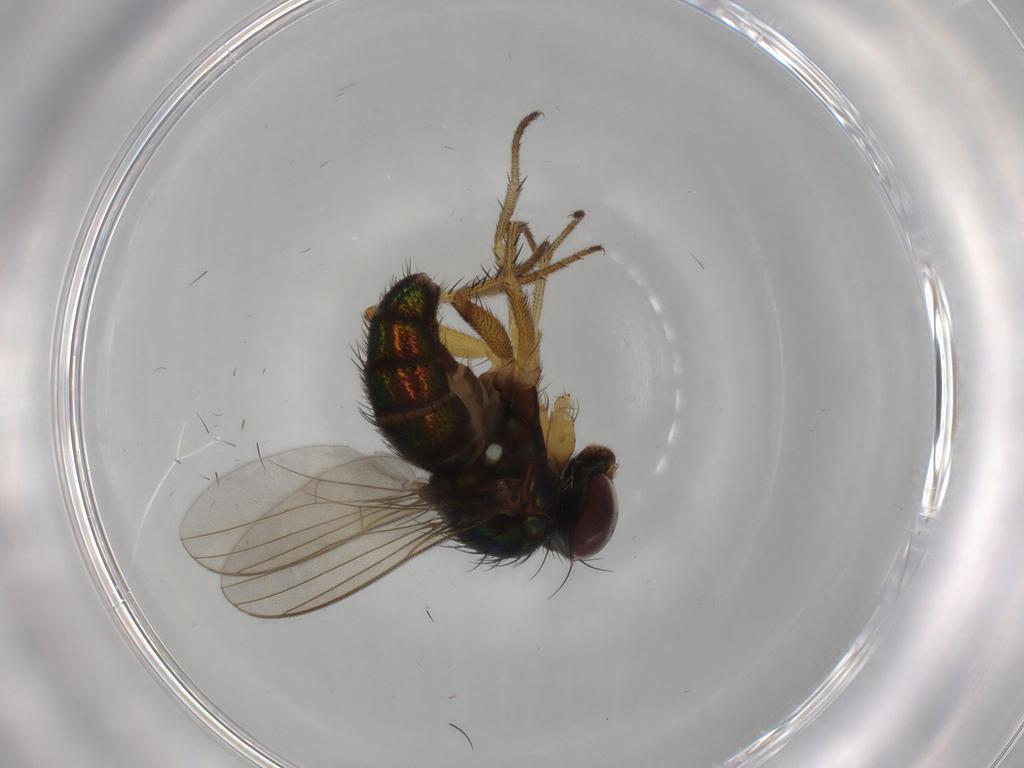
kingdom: Animalia
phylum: Arthropoda
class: Insecta
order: Diptera
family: Dolichopodidae
